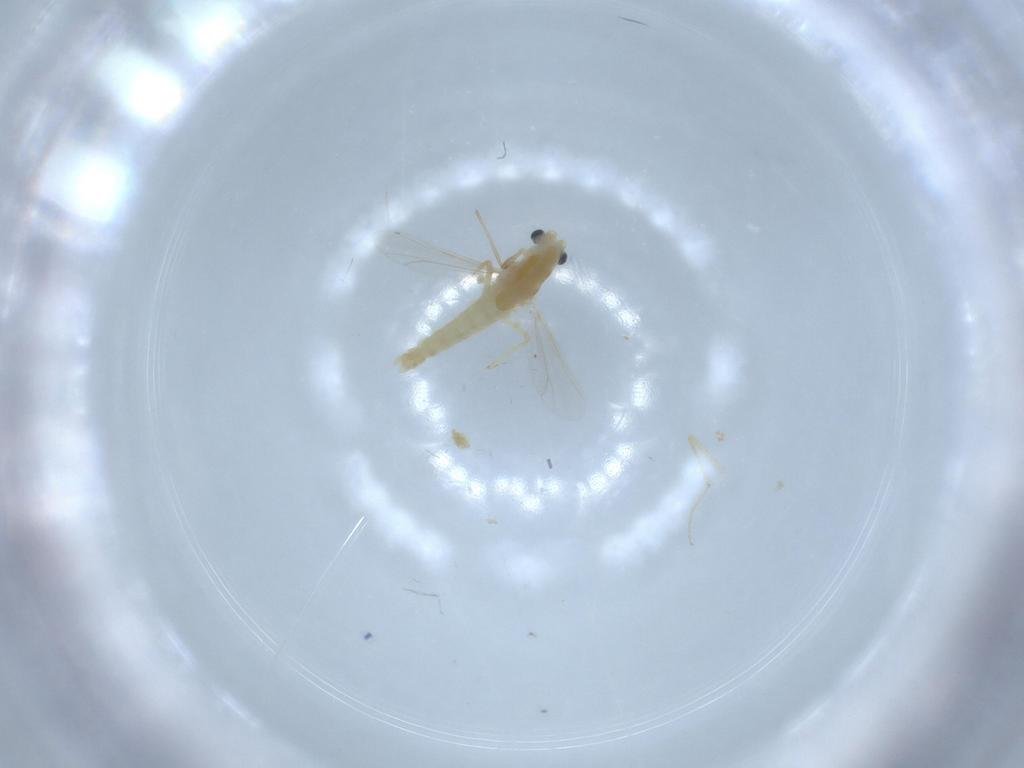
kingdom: Animalia
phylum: Arthropoda
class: Insecta
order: Diptera
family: Chironomidae
